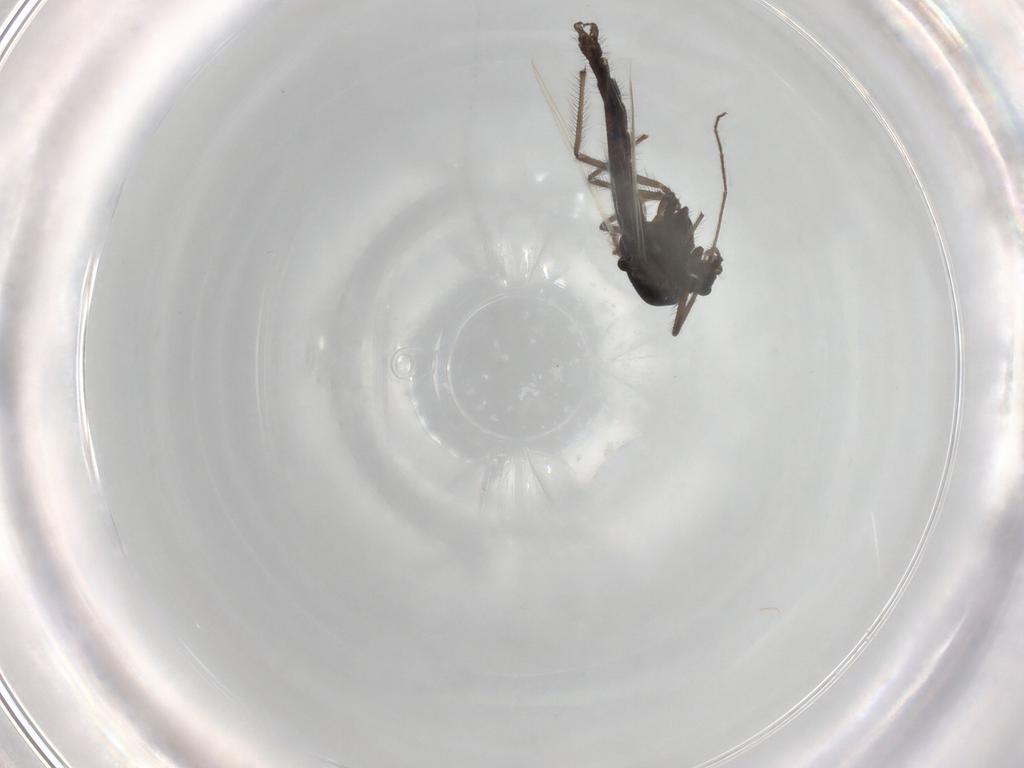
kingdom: Animalia
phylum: Arthropoda
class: Insecta
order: Diptera
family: Chironomidae
